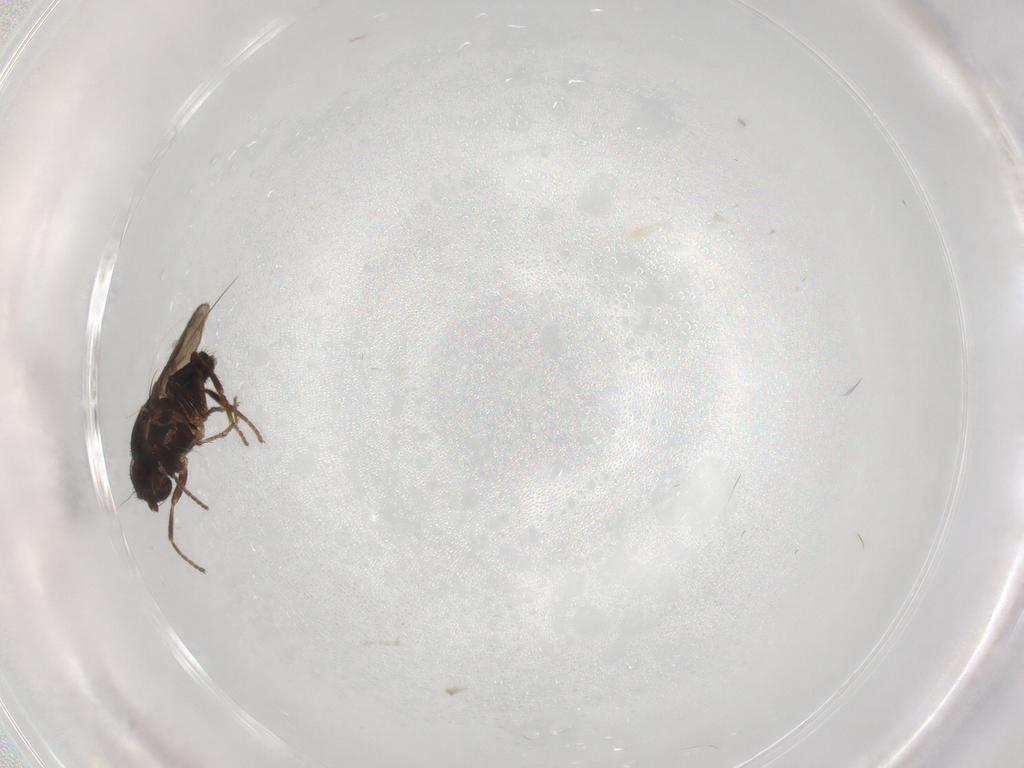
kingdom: Animalia
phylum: Arthropoda
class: Insecta
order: Diptera
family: Sphaeroceridae
